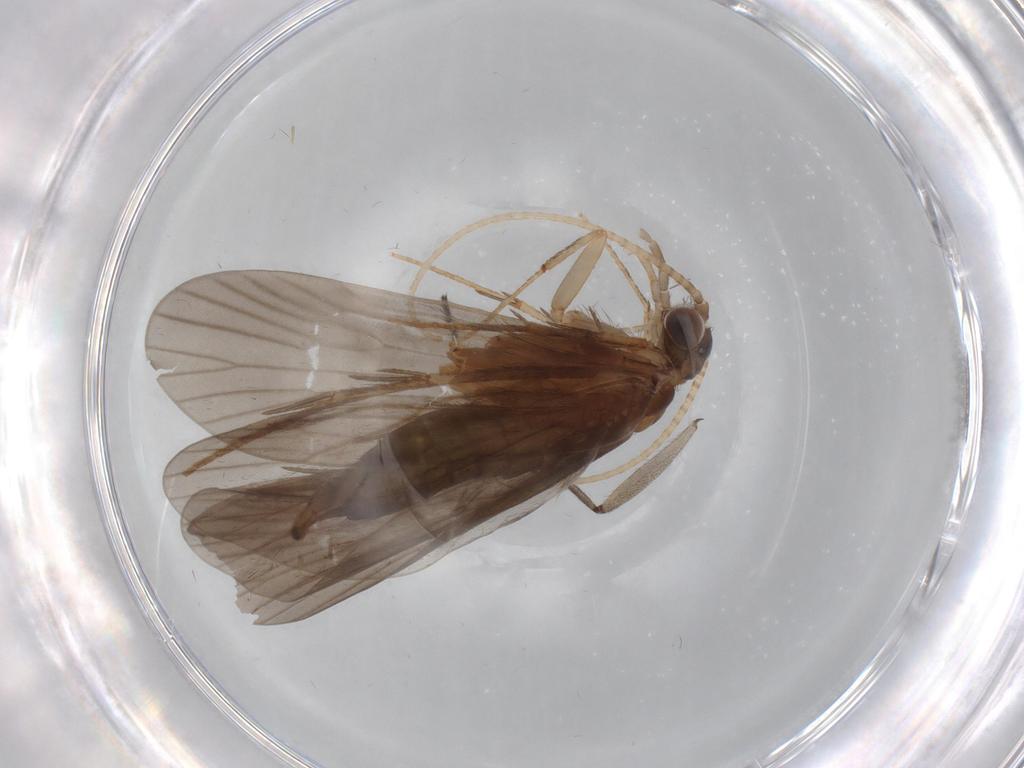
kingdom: Animalia
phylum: Arthropoda
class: Insecta
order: Trichoptera
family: Philopotamidae
